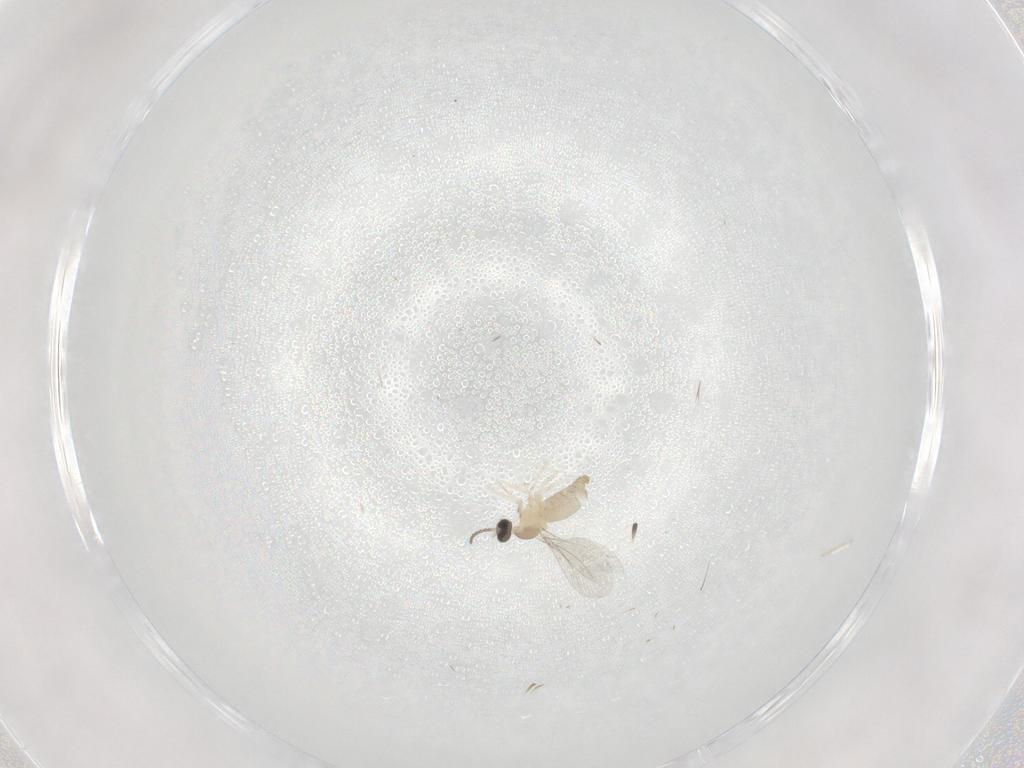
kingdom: Animalia
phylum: Arthropoda
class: Insecta
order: Diptera
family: Cecidomyiidae
